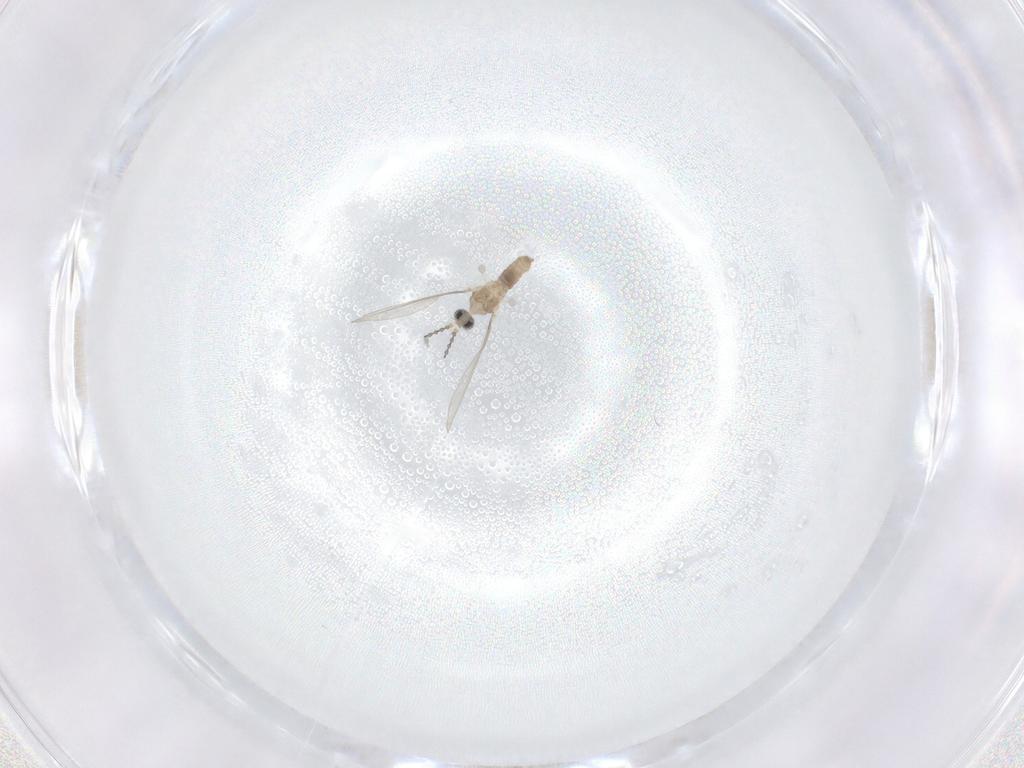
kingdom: Animalia
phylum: Arthropoda
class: Insecta
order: Diptera
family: Cecidomyiidae
